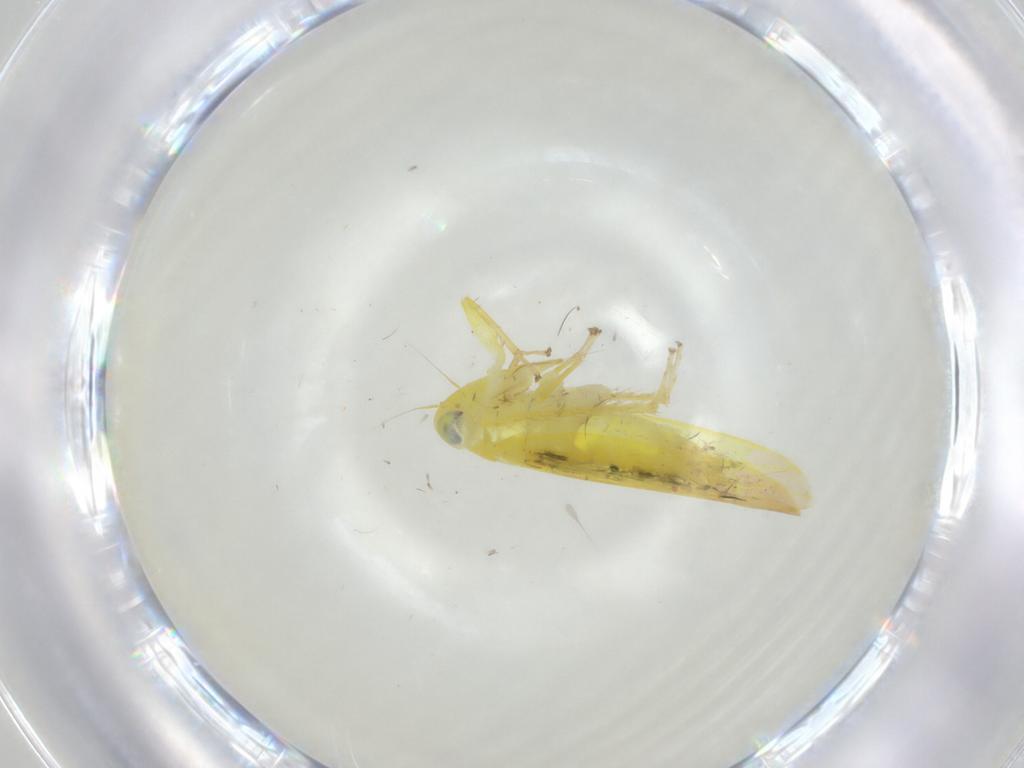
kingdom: Animalia
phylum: Arthropoda
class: Insecta
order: Hemiptera
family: Cicadellidae
